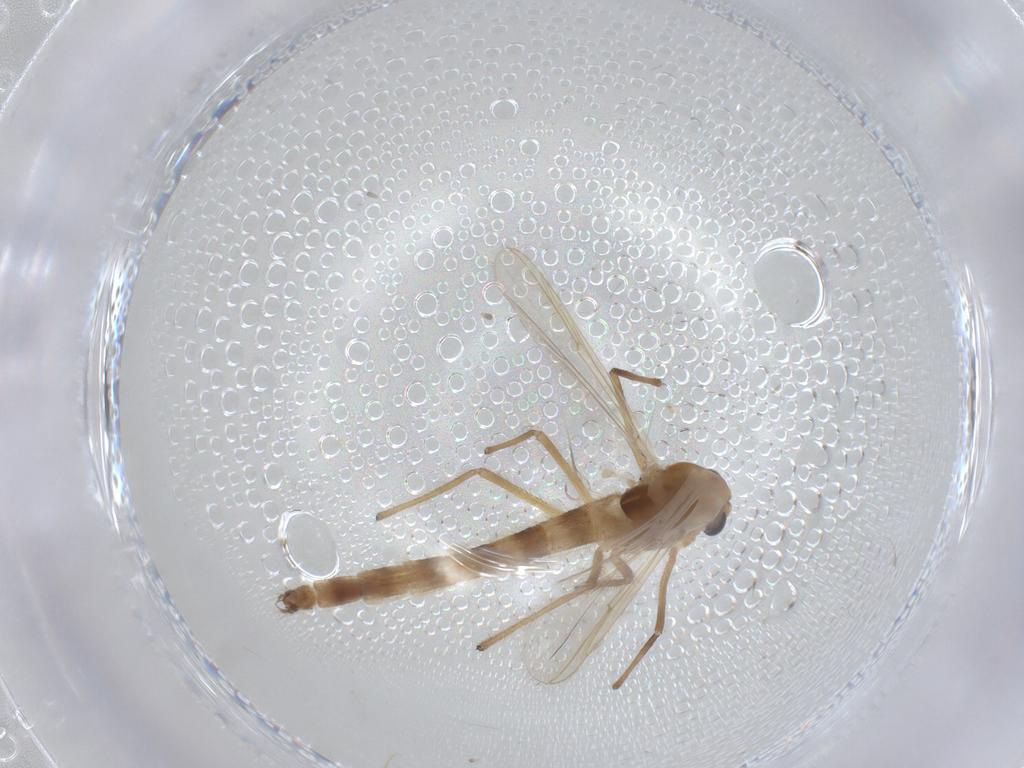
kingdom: Animalia
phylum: Arthropoda
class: Insecta
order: Diptera
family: Chironomidae
